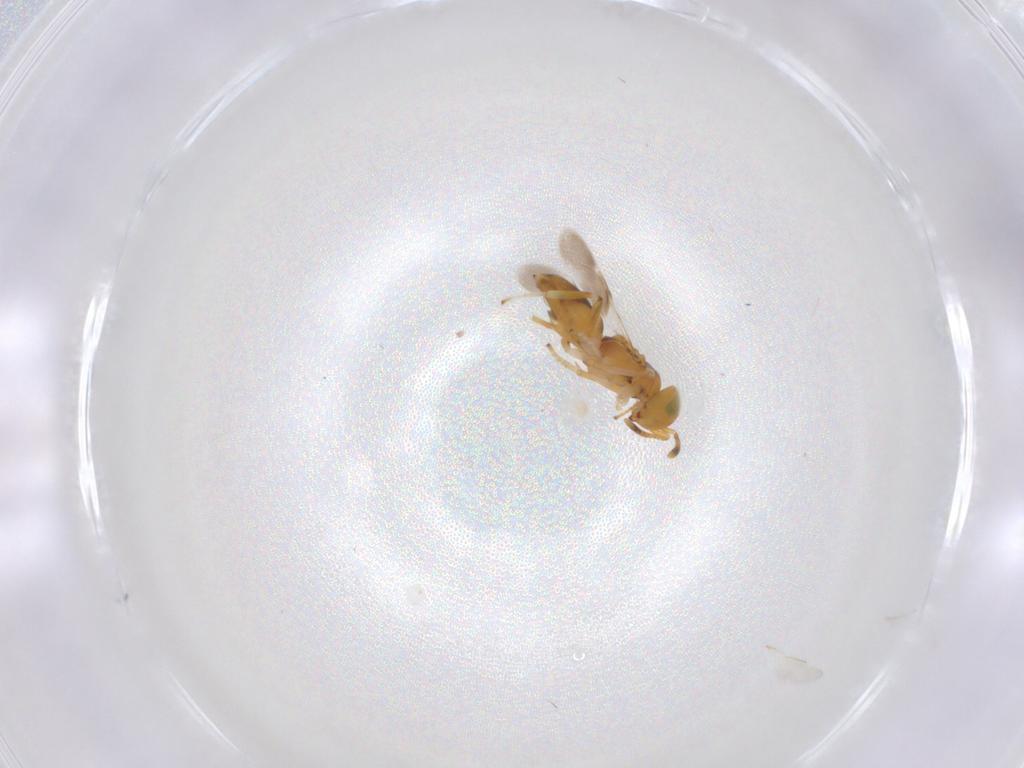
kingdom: Animalia
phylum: Arthropoda
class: Insecta
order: Hymenoptera
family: Encyrtidae
